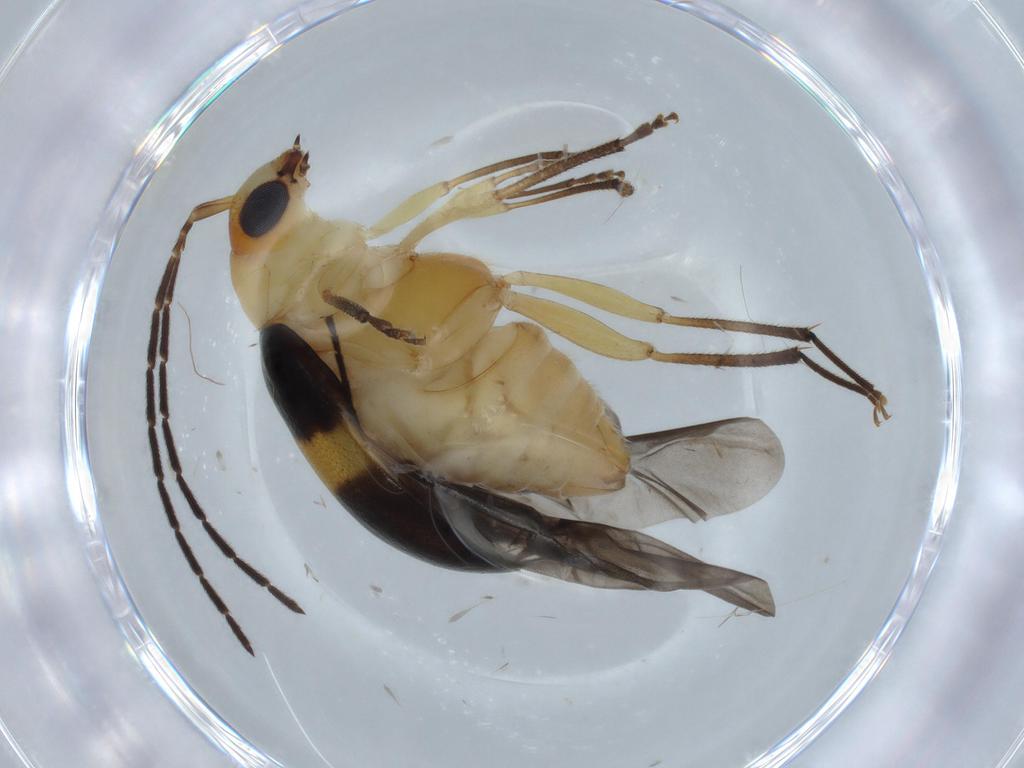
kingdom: Animalia
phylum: Arthropoda
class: Insecta
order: Coleoptera
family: Chrysomelidae
